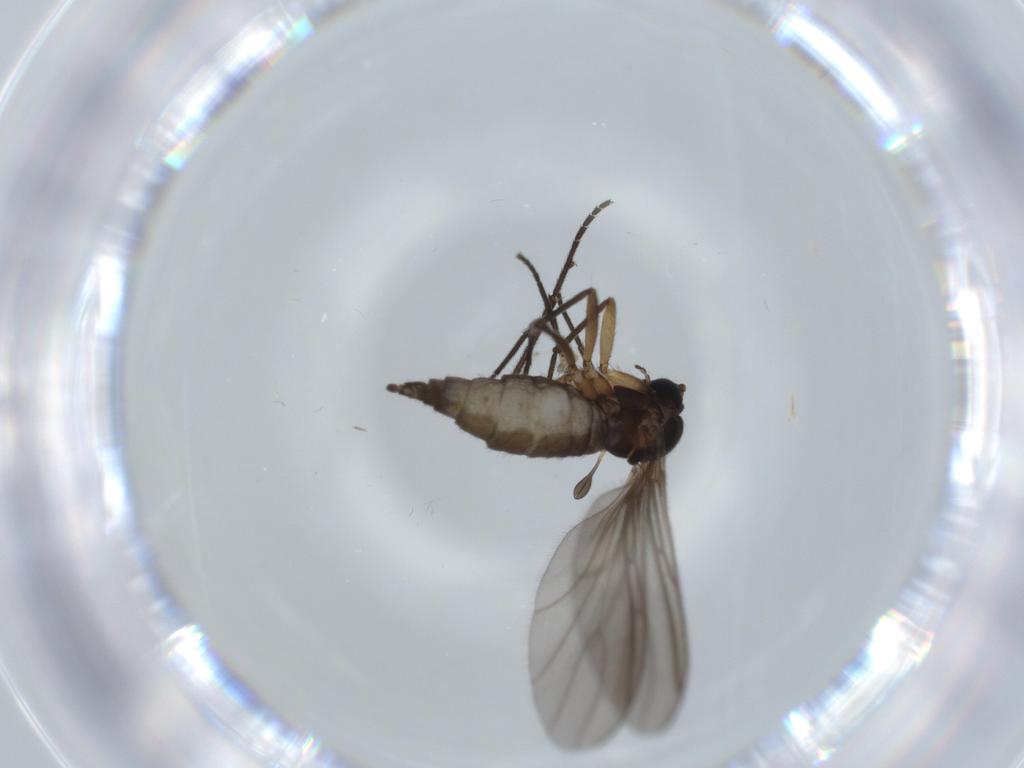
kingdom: Animalia
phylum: Arthropoda
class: Insecta
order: Diptera
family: Sciaridae
